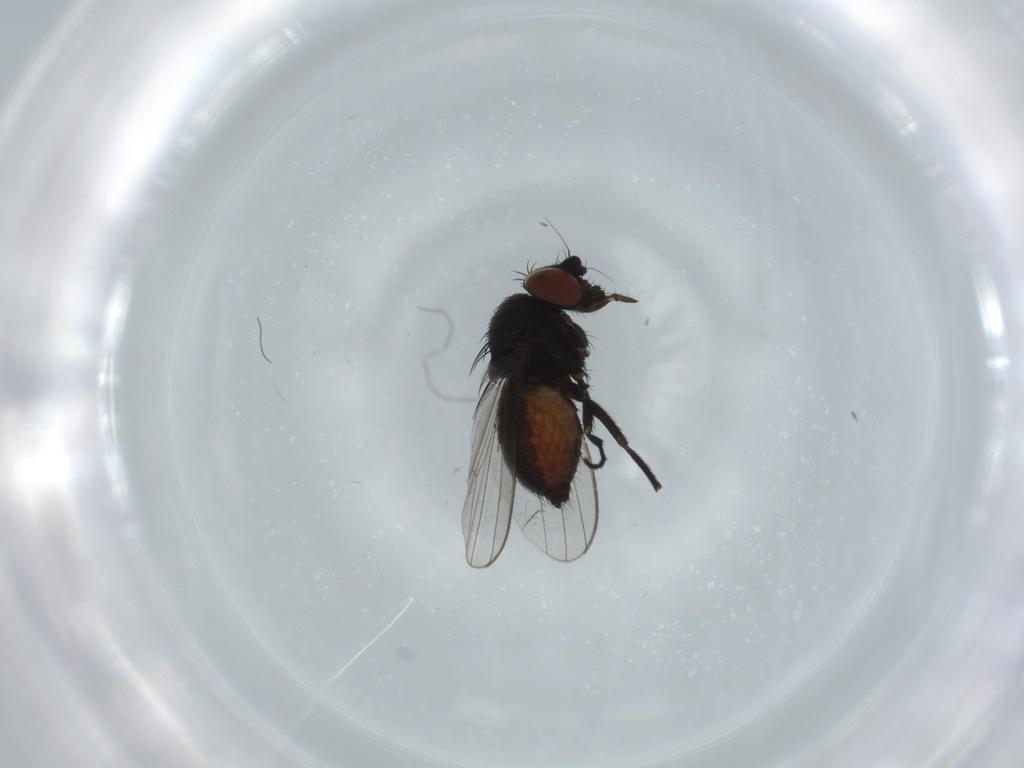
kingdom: Animalia
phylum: Arthropoda
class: Insecta
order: Diptera
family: Milichiidae
